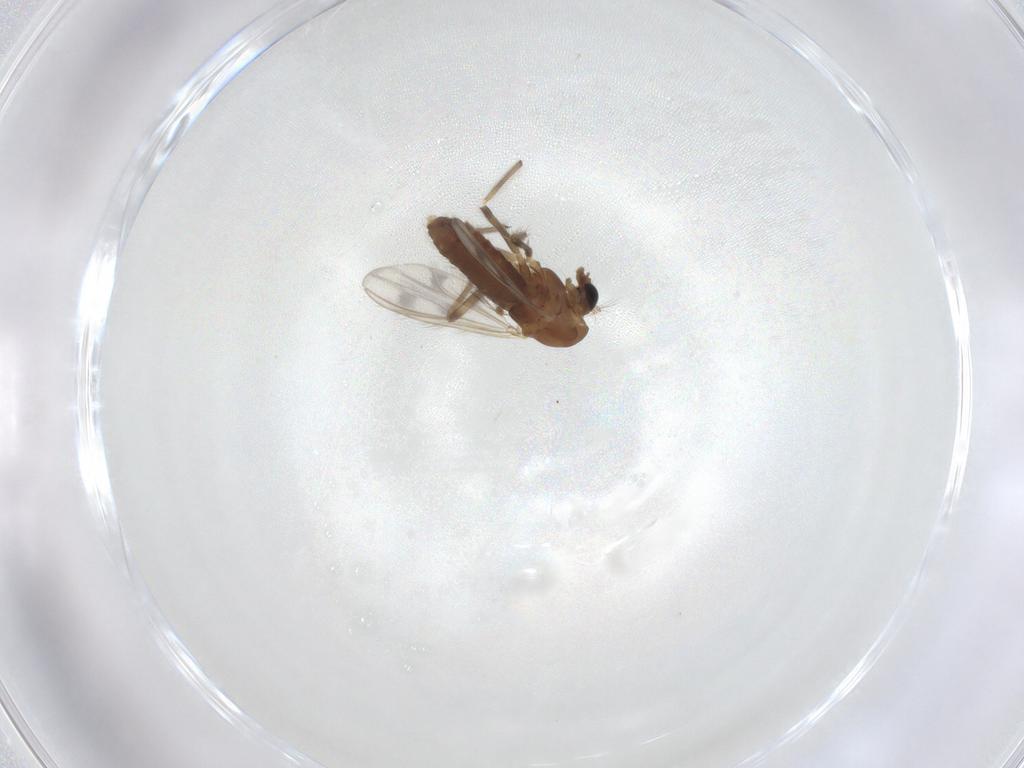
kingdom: Animalia
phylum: Arthropoda
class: Insecta
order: Diptera
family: Chironomidae
